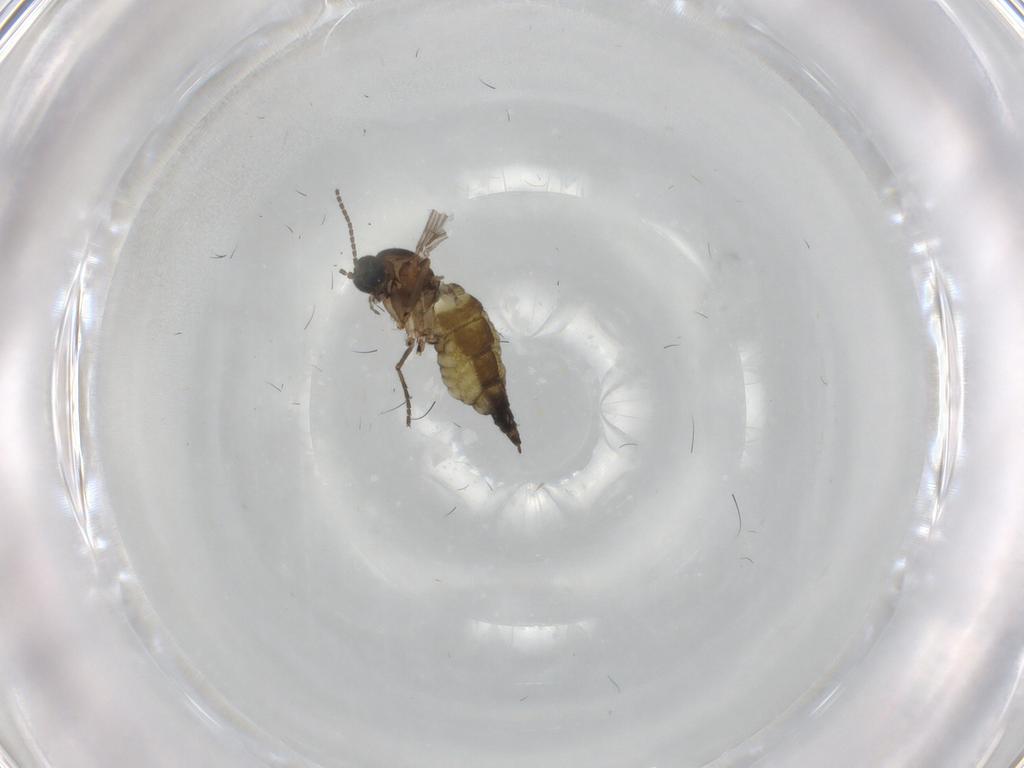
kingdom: Animalia
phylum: Arthropoda
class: Insecta
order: Diptera
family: Sciaridae
